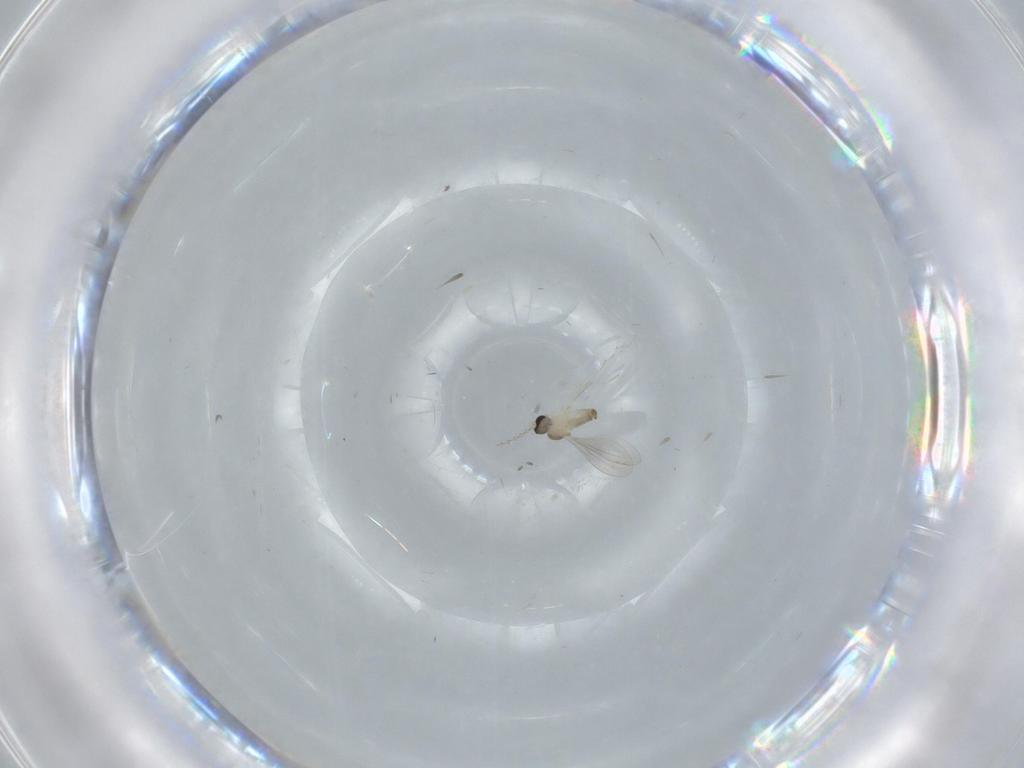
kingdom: Animalia
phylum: Arthropoda
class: Insecta
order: Diptera
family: Cecidomyiidae
